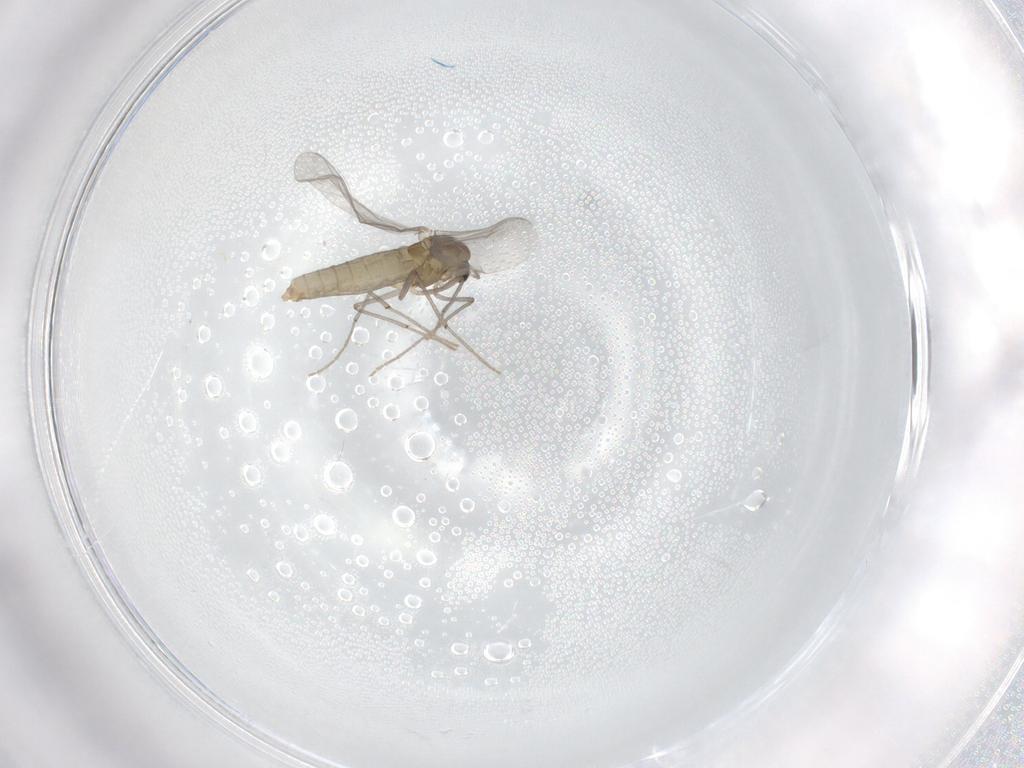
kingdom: Animalia
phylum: Arthropoda
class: Insecta
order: Diptera
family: Chironomidae
